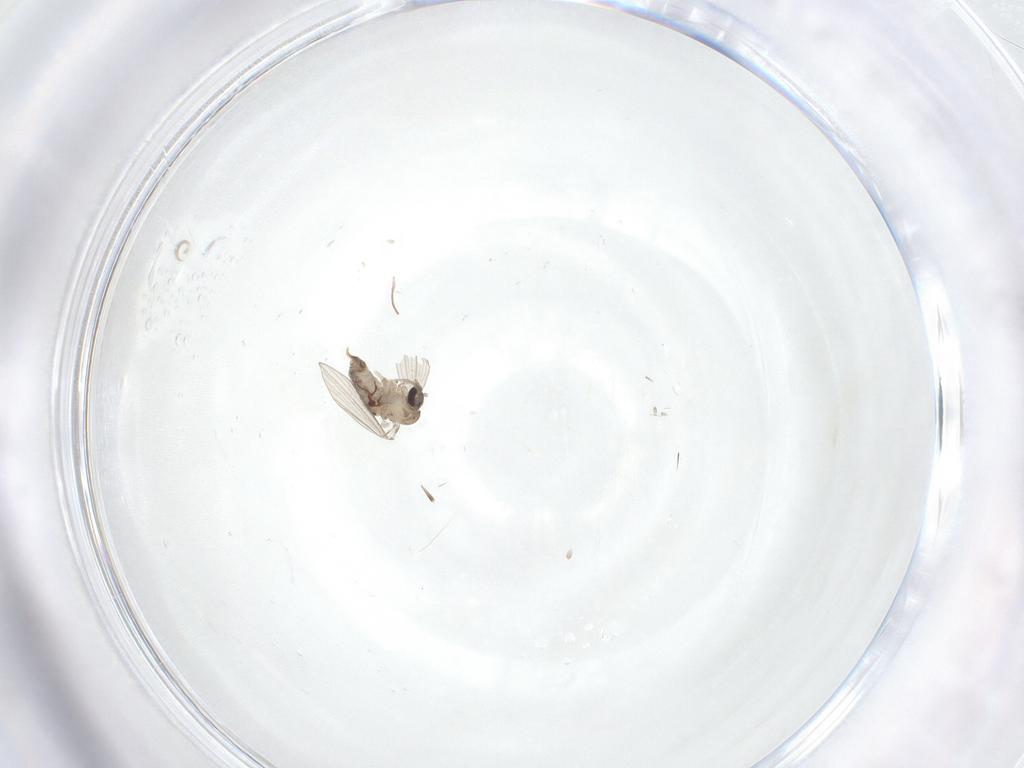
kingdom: Animalia
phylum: Arthropoda
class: Insecta
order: Diptera
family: Psychodidae
